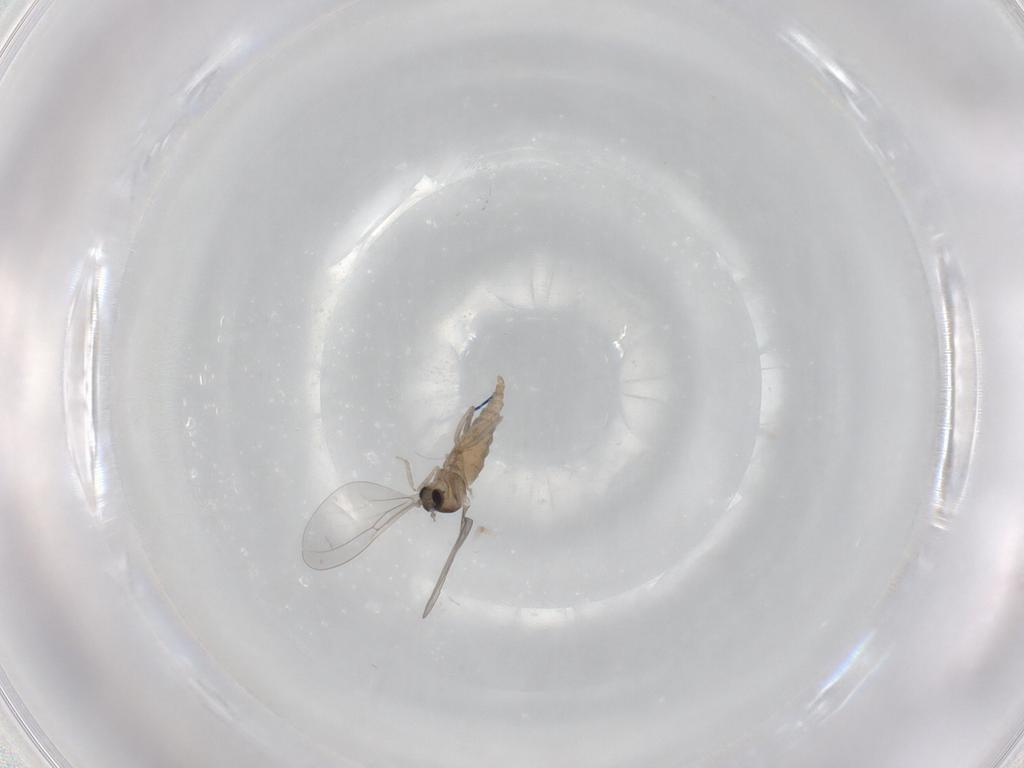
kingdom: Animalia
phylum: Arthropoda
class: Insecta
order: Diptera
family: Cecidomyiidae
